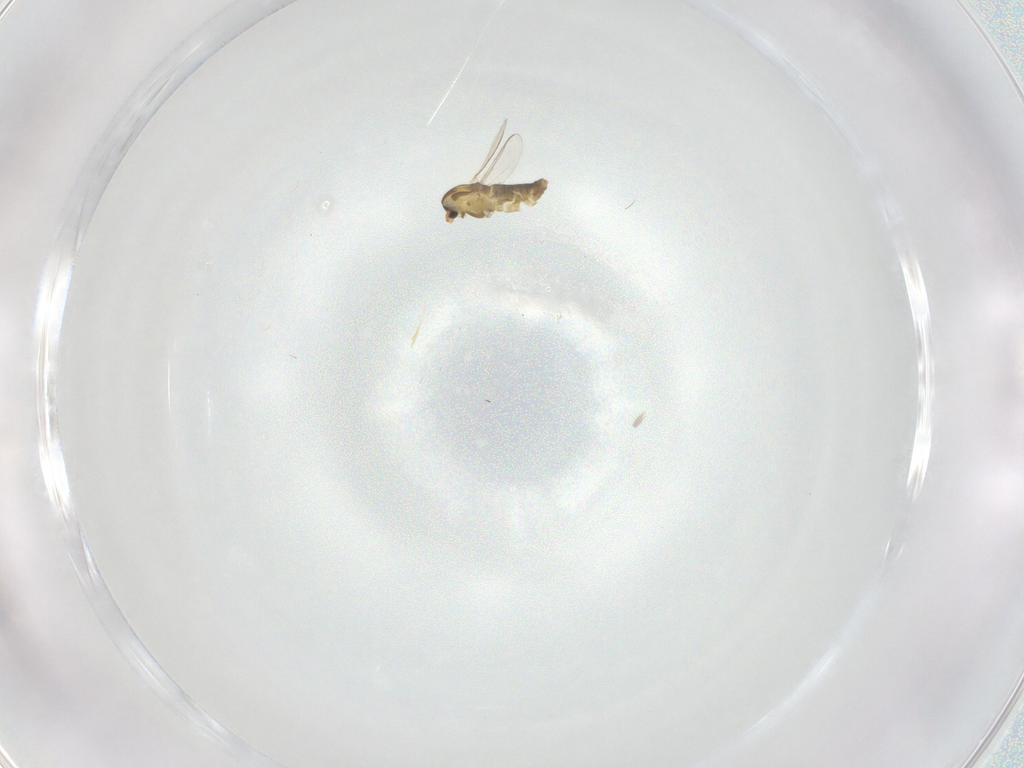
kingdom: Animalia
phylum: Arthropoda
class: Insecta
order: Diptera
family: Chironomidae
